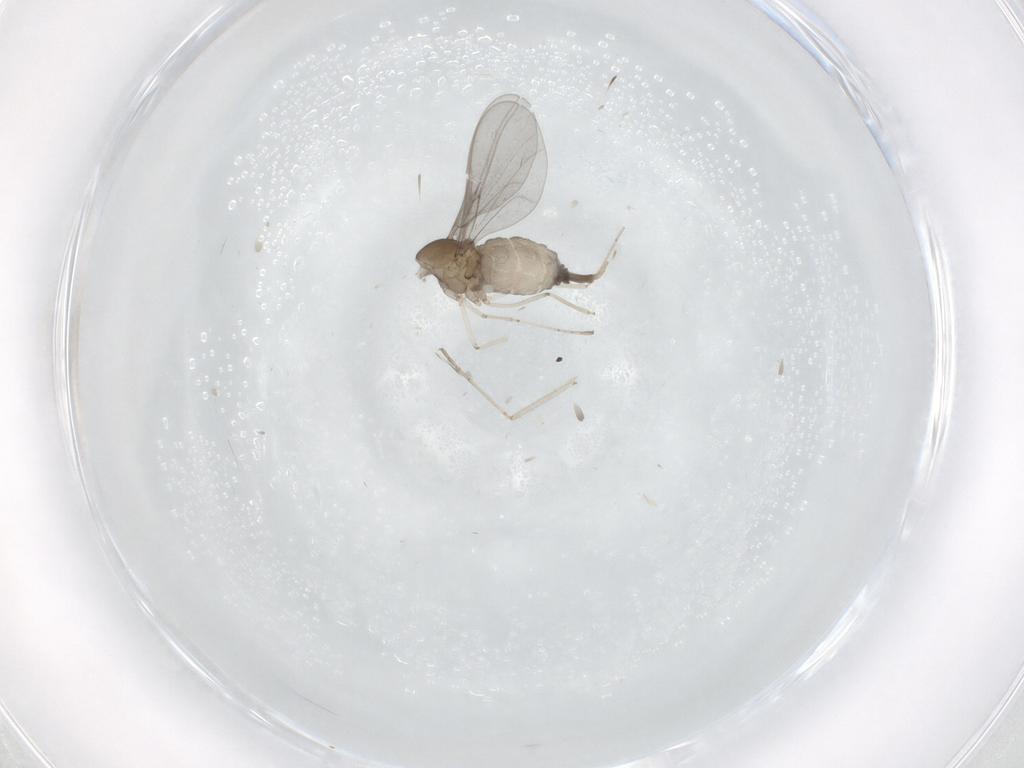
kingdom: Animalia
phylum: Arthropoda
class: Insecta
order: Diptera
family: Cecidomyiidae
